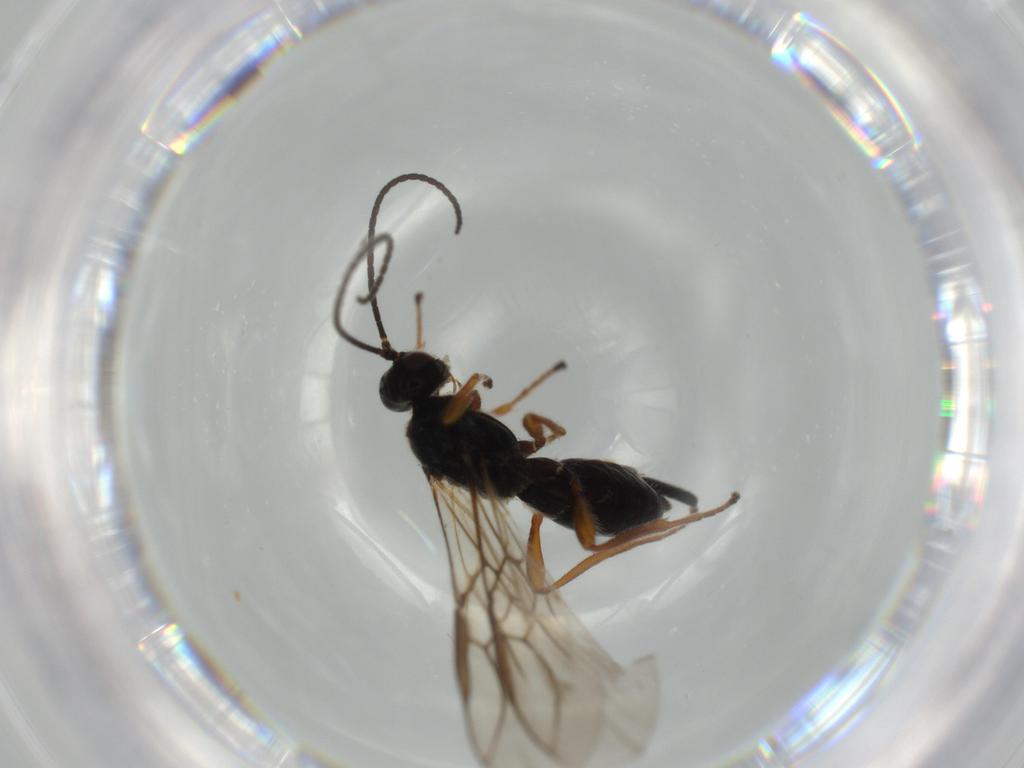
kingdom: Animalia
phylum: Arthropoda
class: Insecta
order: Hymenoptera
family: Braconidae
